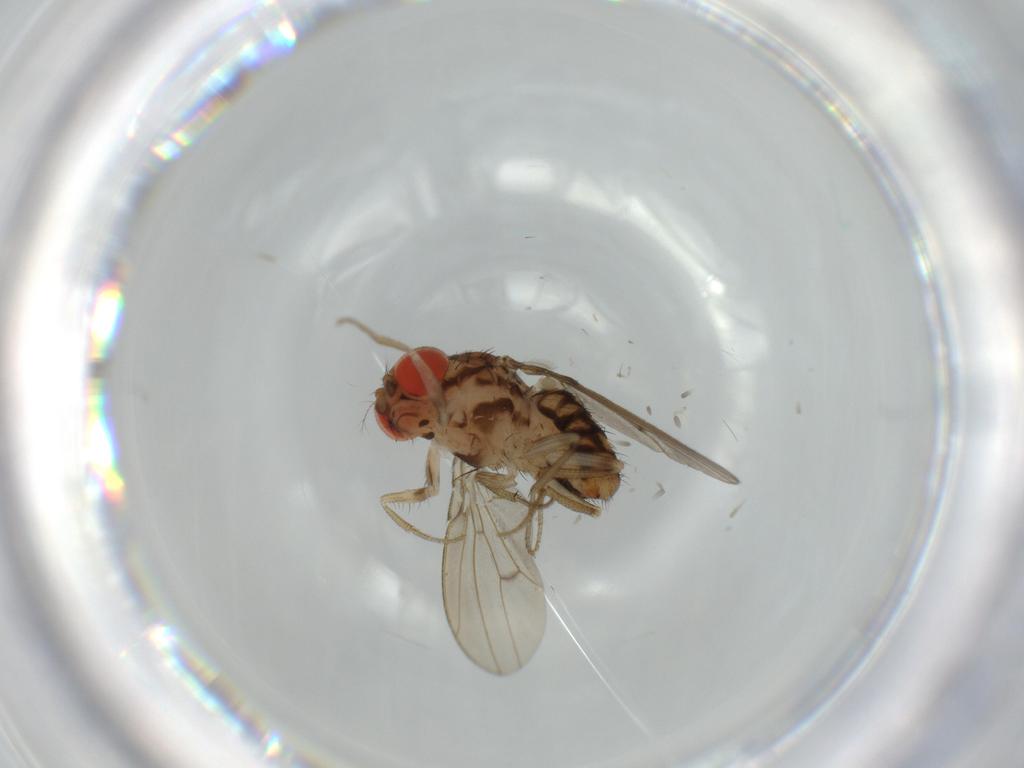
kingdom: Animalia
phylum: Arthropoda
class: Insecta
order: Diptera
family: Drosophilidae
